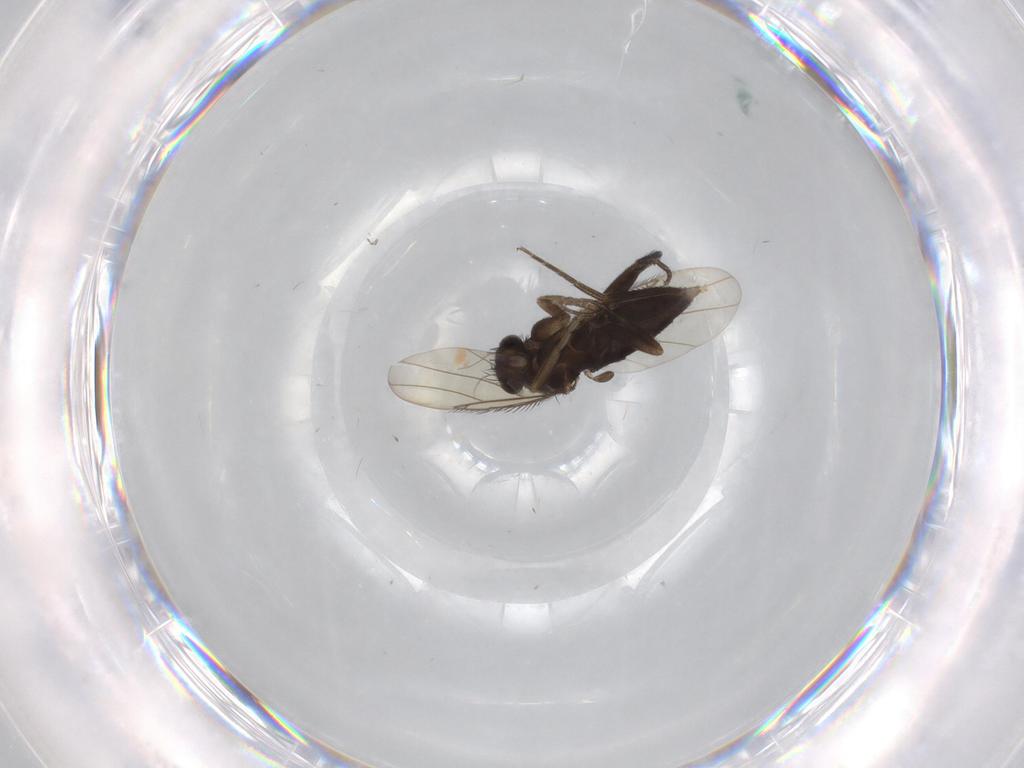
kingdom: Animalia
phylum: Arthropoda
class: Insecta
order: Diptera
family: Phoridae
